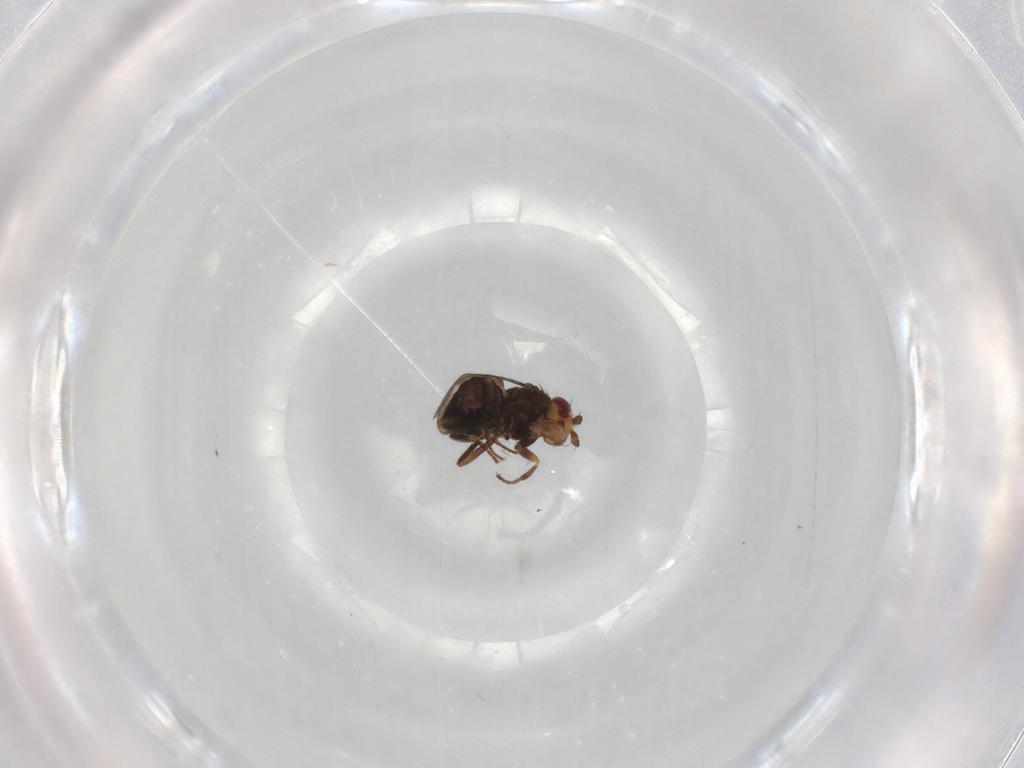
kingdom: Animalia
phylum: Arthropoda
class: Insecta
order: Diptera
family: Sphaeroceridae
